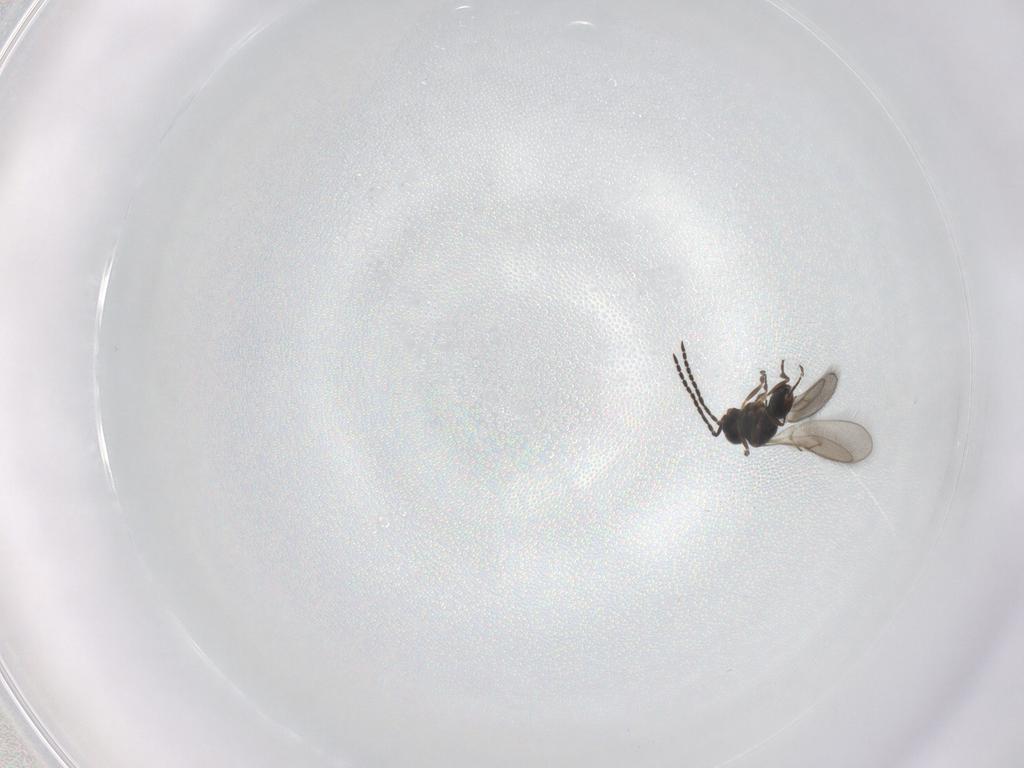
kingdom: Animalia
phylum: Arthropoda
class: Insecta
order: Hymenoptera
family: Scelionidae
